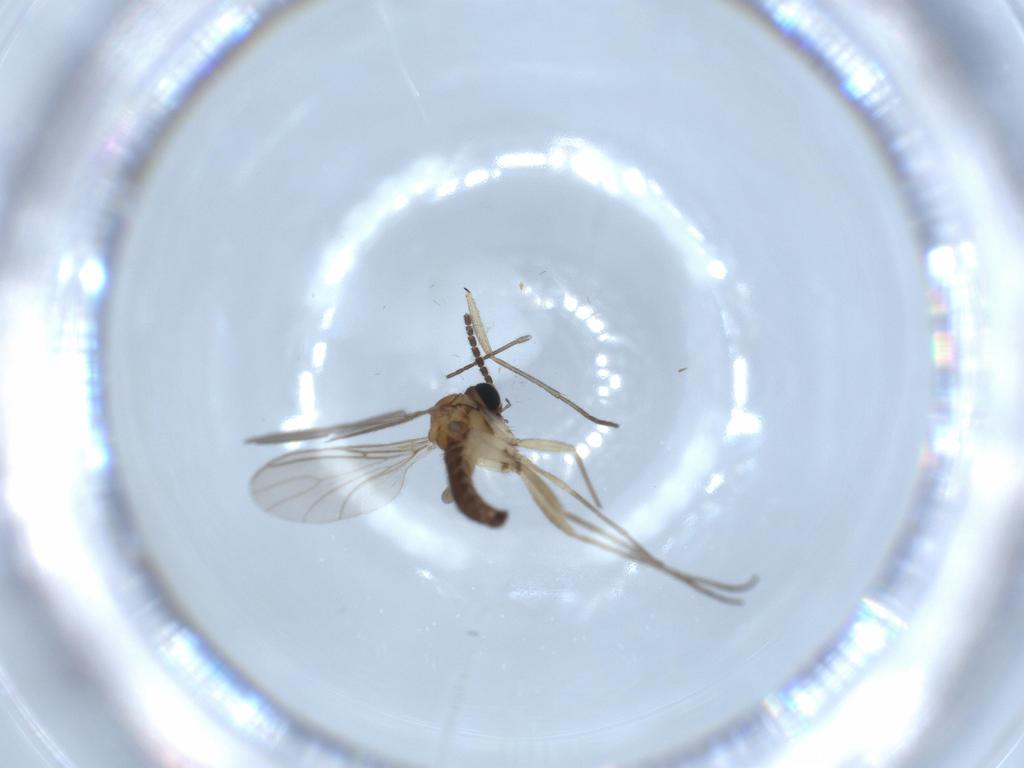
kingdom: Animalia
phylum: Arthropoda
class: Insecta
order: Diptera
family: Sciaridae
